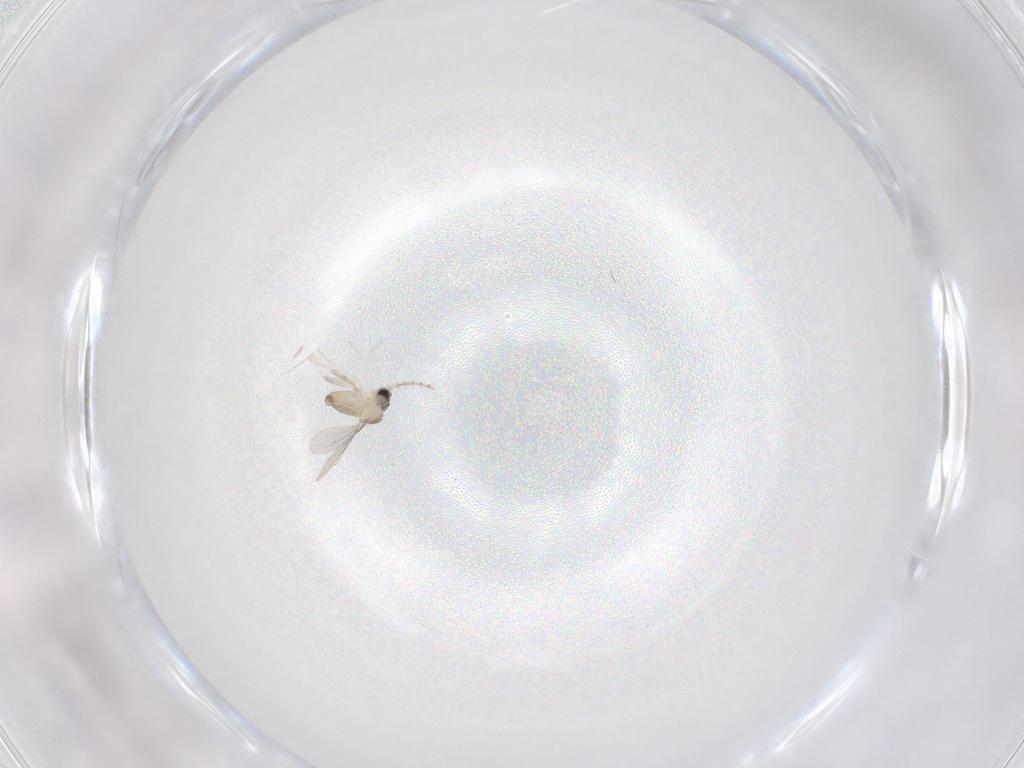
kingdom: Animalia
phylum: Arthropoda
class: Insecta
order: Diptera
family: Cecidomyiidae
